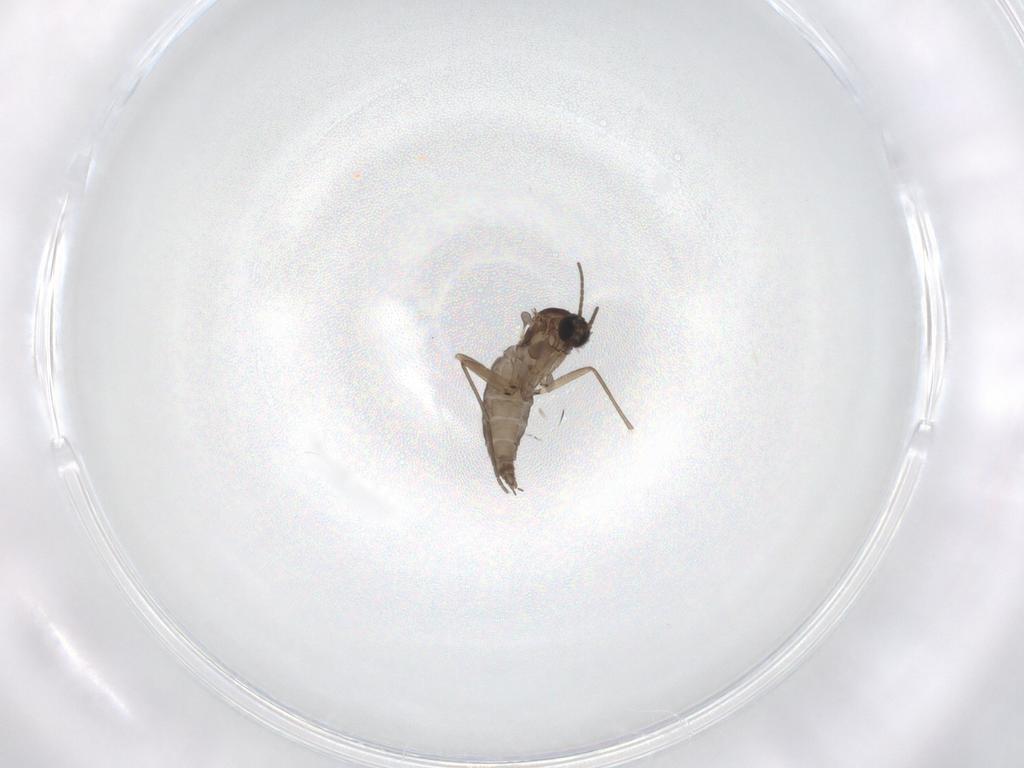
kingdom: Animalia
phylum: Arthropoda
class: Insecta
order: Diptera
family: Sciaridae
